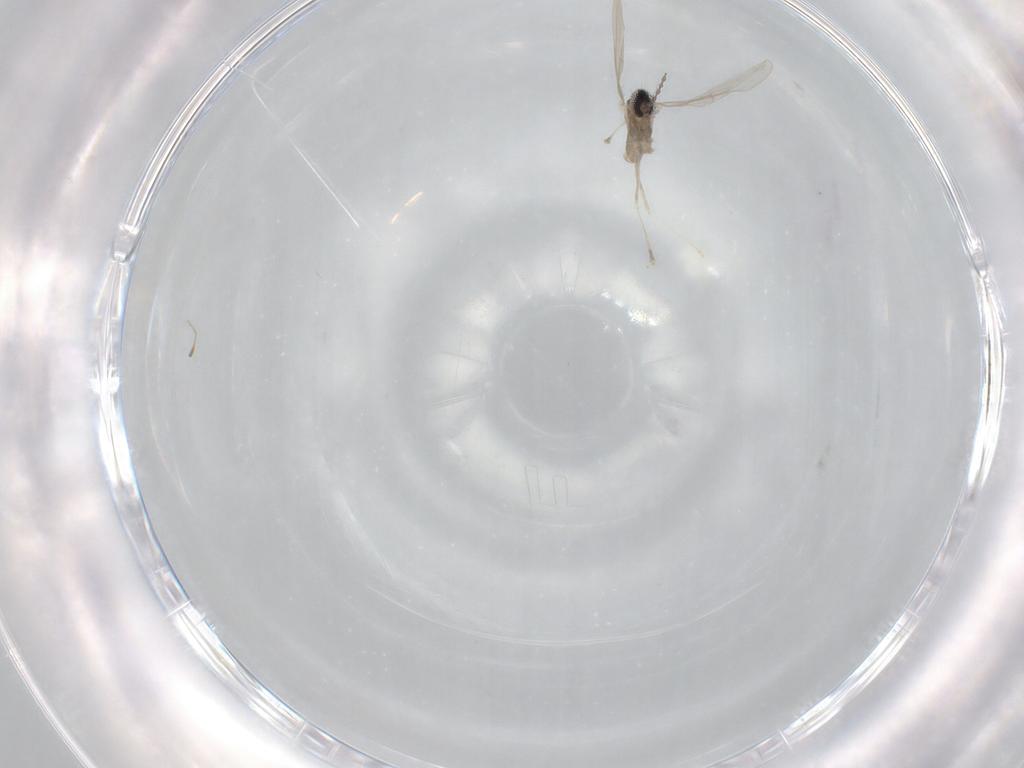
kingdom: Animalia
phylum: Arthropoda
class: Insecta
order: Diptera
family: Cecidomyiidae
